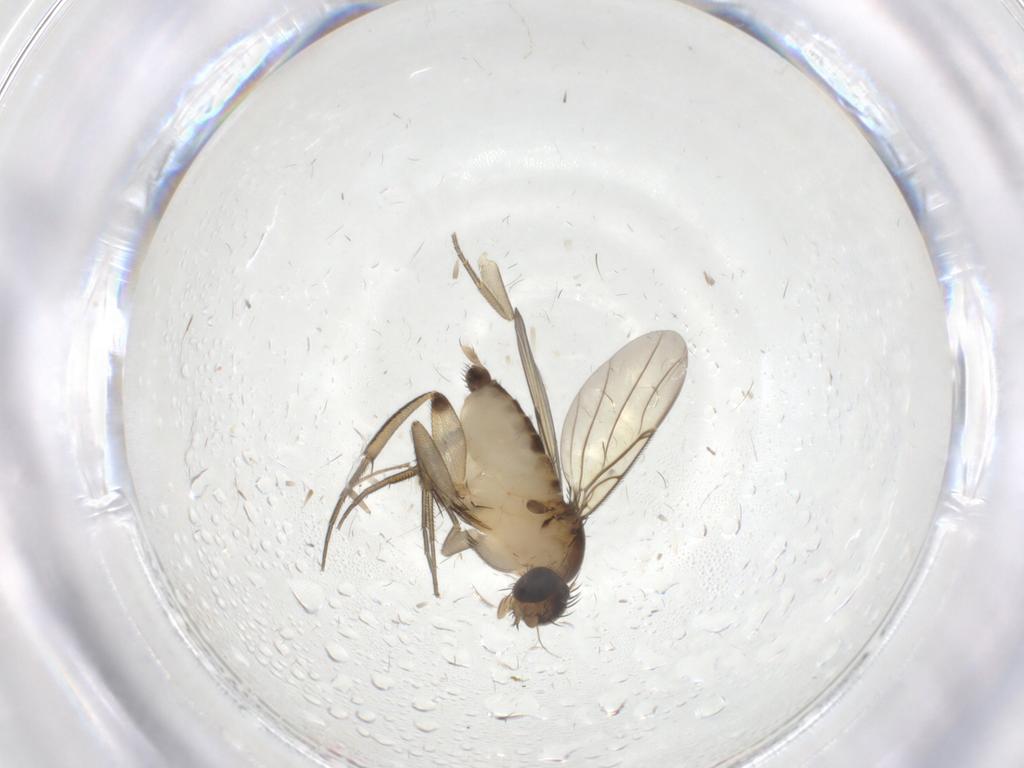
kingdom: Animalia
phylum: Arthropoda
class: Insecta
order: Diptera
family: Phoridae
